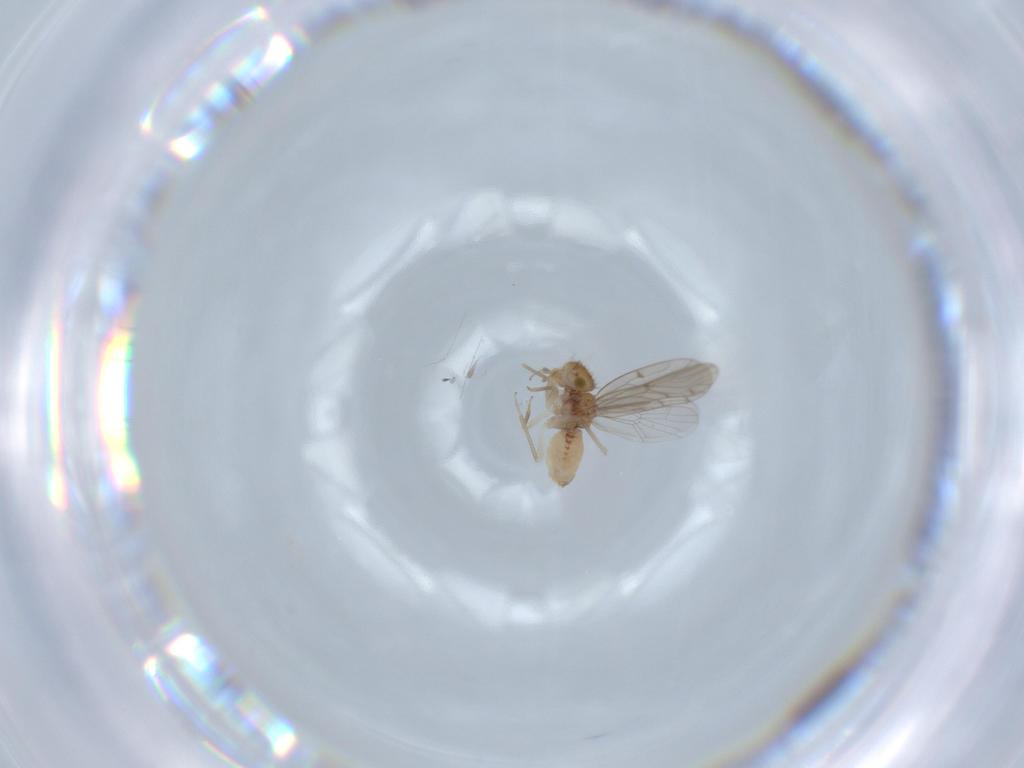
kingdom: Animalia
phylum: Arthropoda
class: Insecta
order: Psocodea
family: Ectopsocidae
